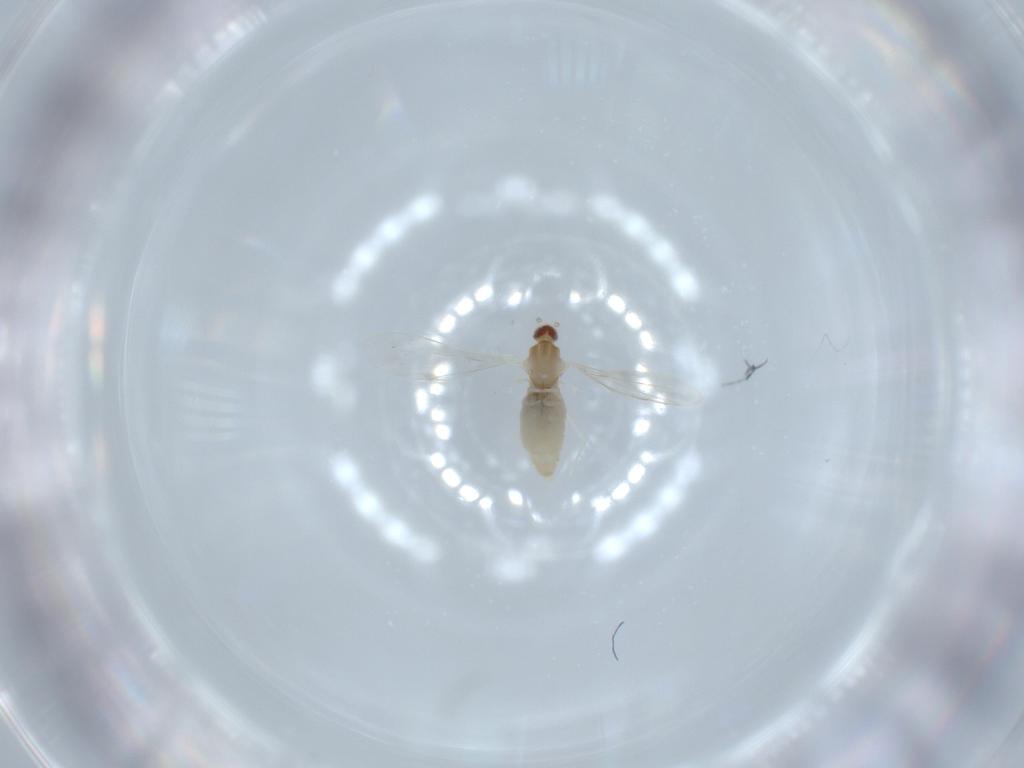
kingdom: Animalia
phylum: Arthropoda
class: Insecta
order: Diptera
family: Cecidomyiidae
